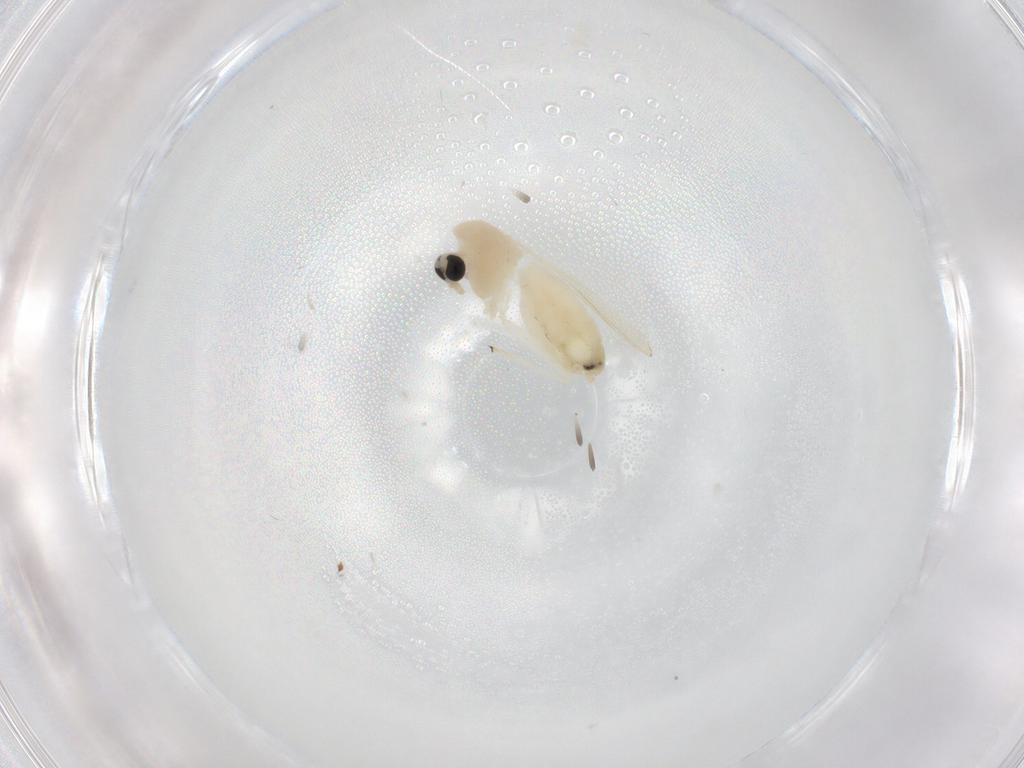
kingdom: Animalia
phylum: Arthropoda
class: Insecta
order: Diptera
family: Chironomidae
